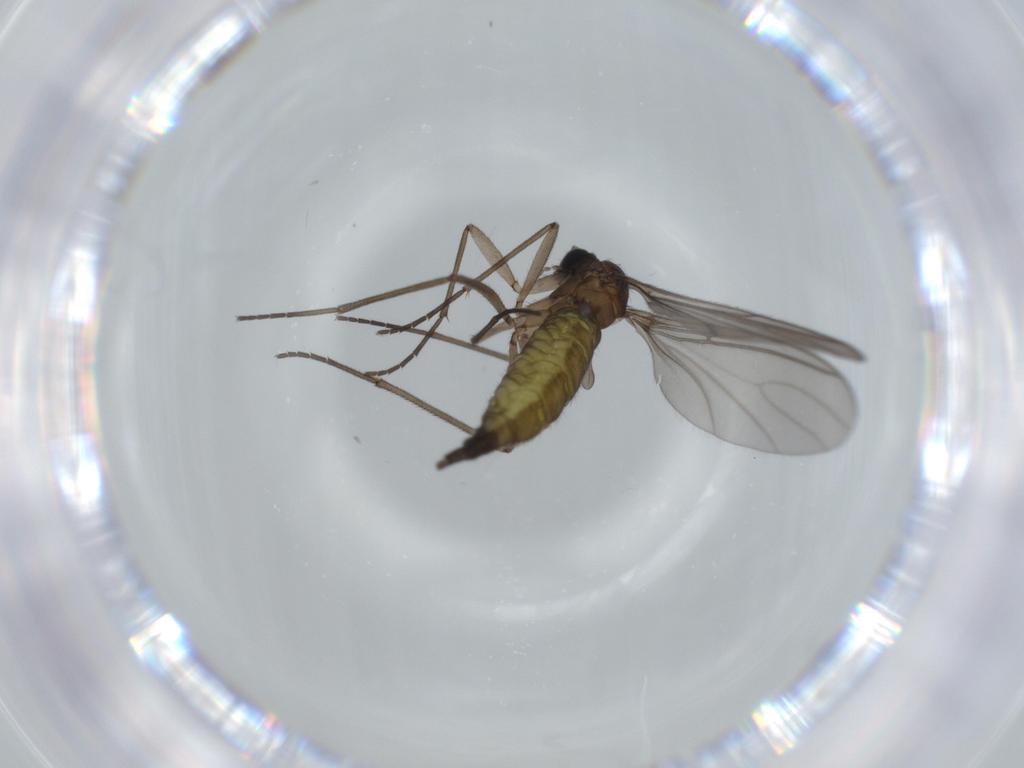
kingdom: Animalia
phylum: Arthropoda
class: Insecta
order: Diptera
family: Sciaridae
